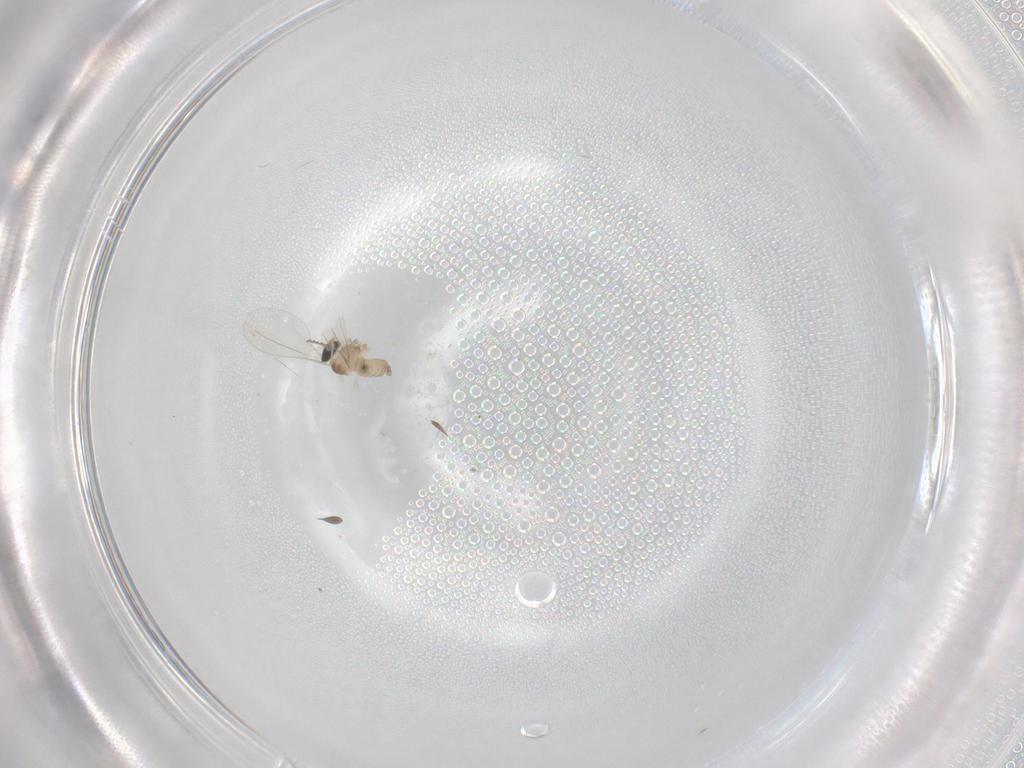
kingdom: Animalia
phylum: Arthropoda
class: Insecta
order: Diptera
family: Cecidomyiidae
